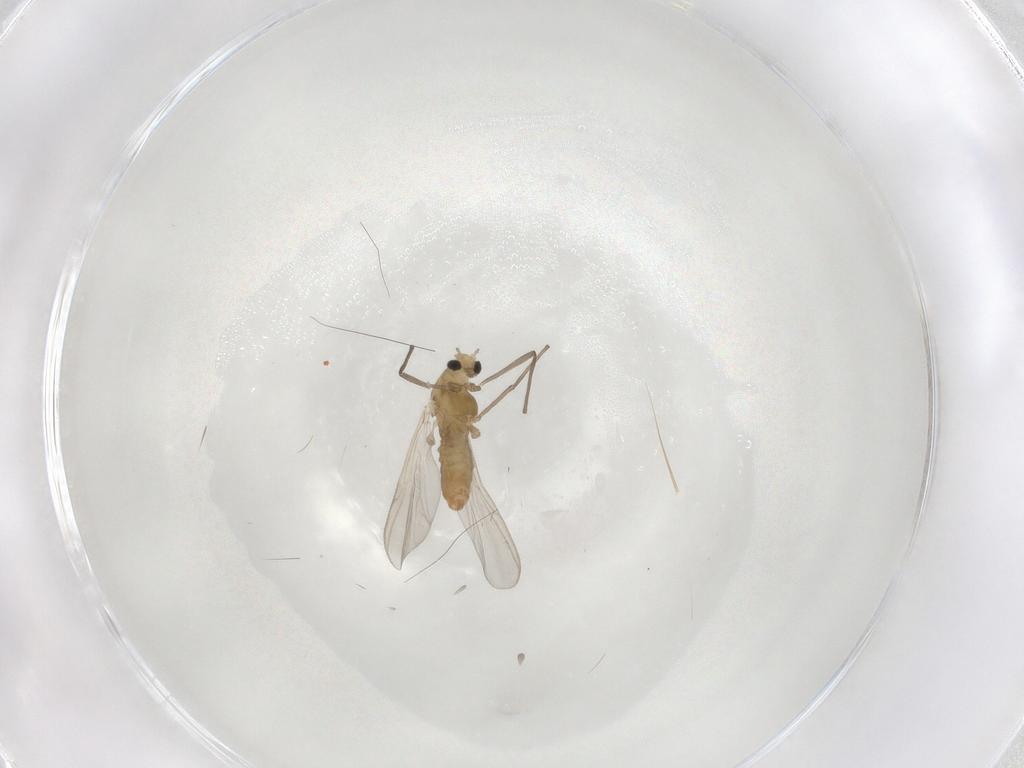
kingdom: Animalia
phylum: Arthropoda
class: Insecta
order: Diptera
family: Chironomidae
